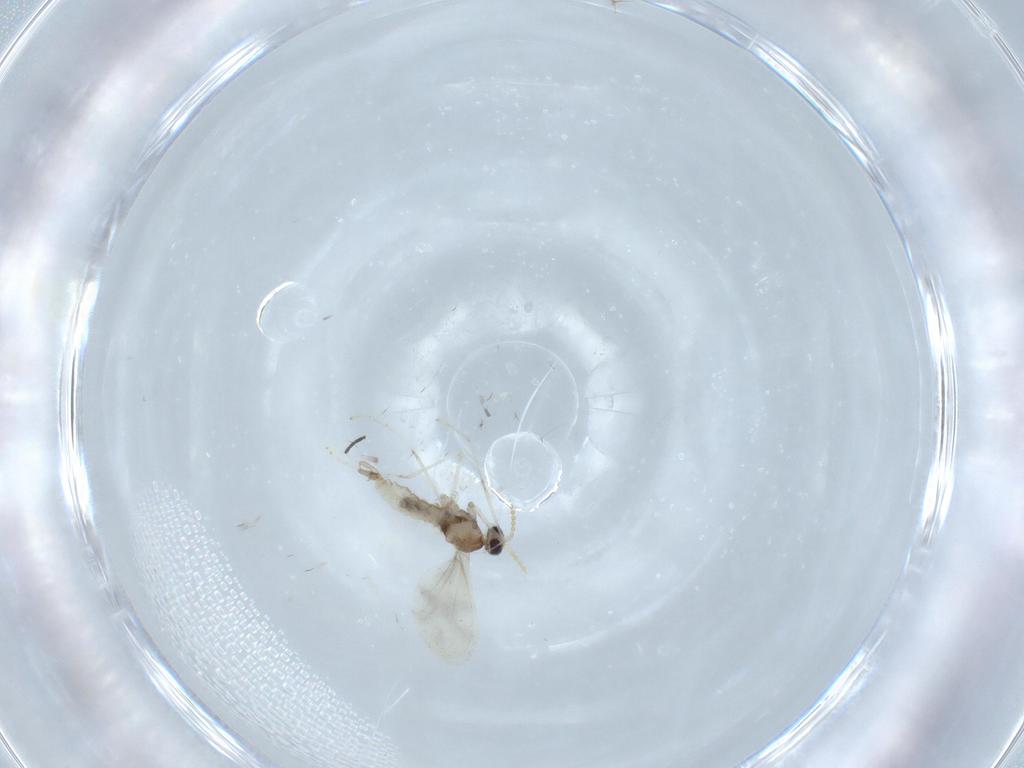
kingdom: Animalia
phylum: Arthropoda
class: Insecta
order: Diptera
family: Cecidomyiidae
